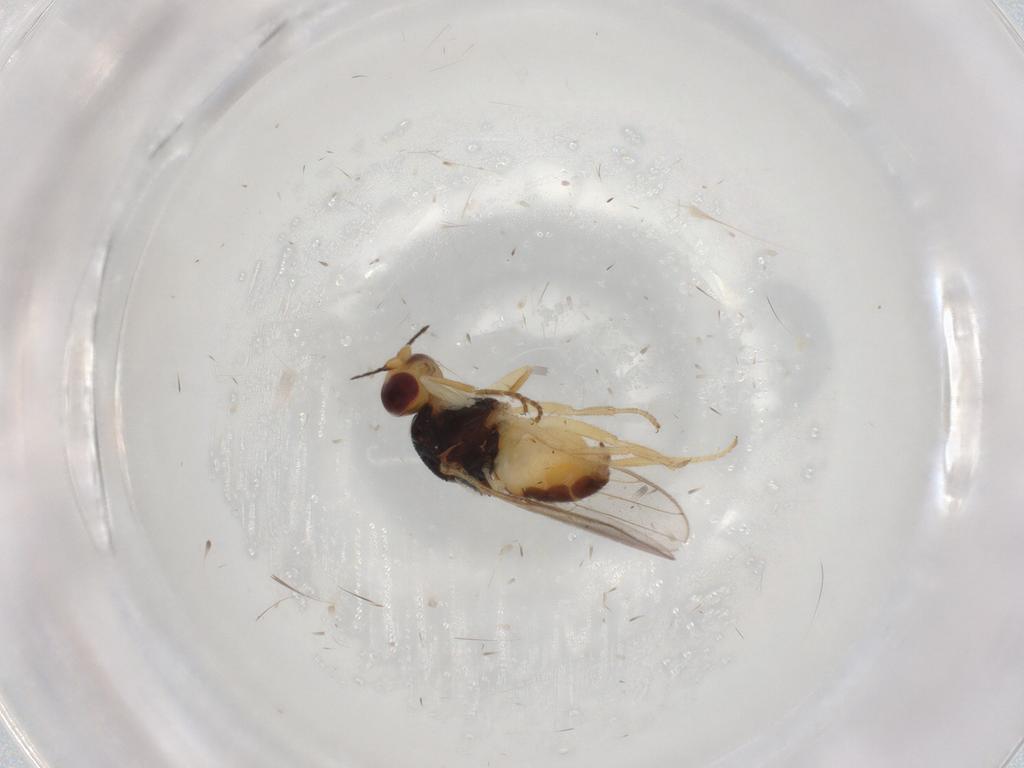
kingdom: Animalia
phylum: Arthropoda
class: Insecta
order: Diptera
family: Chloropidae
